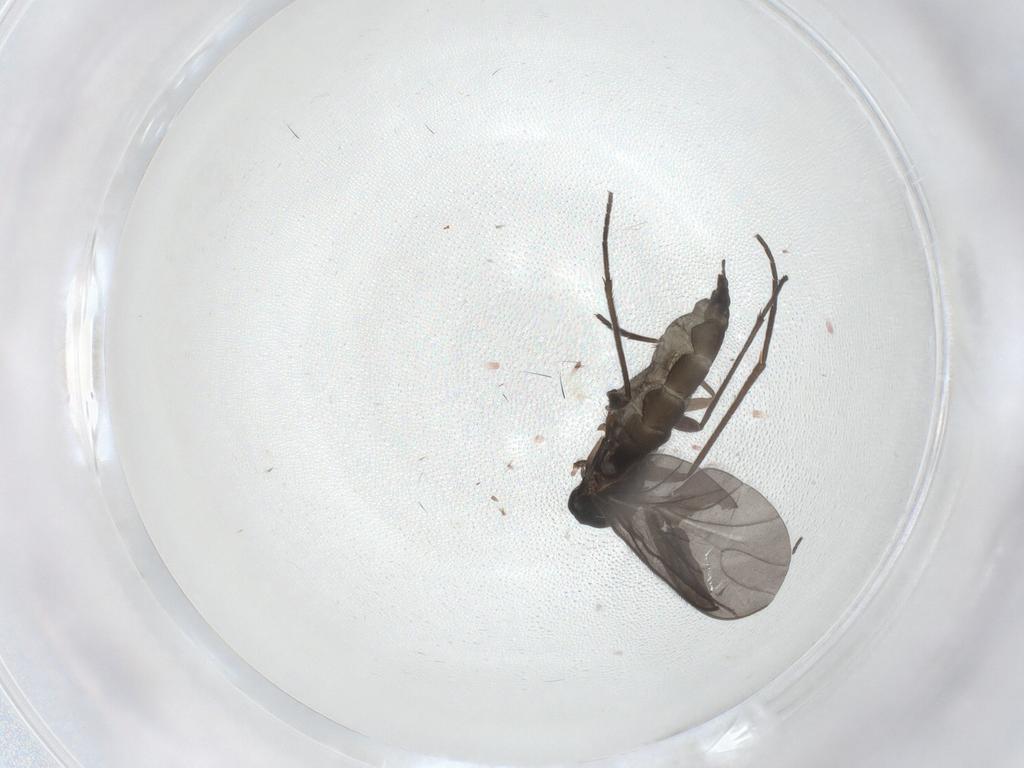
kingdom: Animalia
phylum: Arthropoda
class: Insecta
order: Diptera
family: Sciaridae
